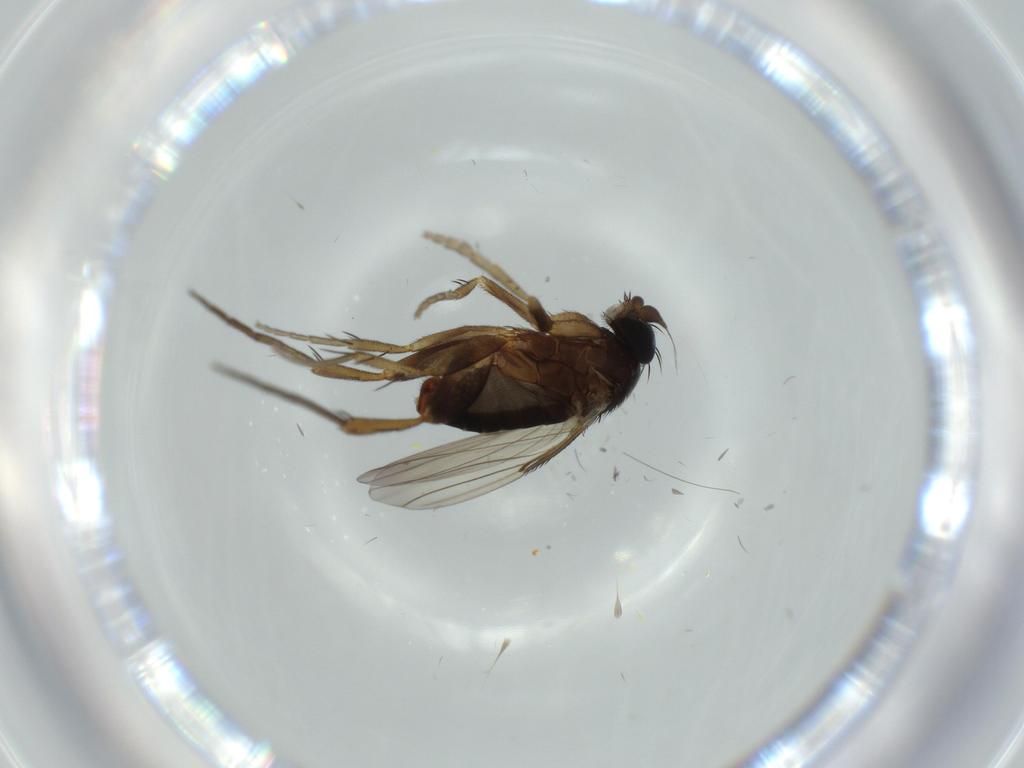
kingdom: Animalia
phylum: Arthropoda
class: Insecta
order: Diptera
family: Phoridae
